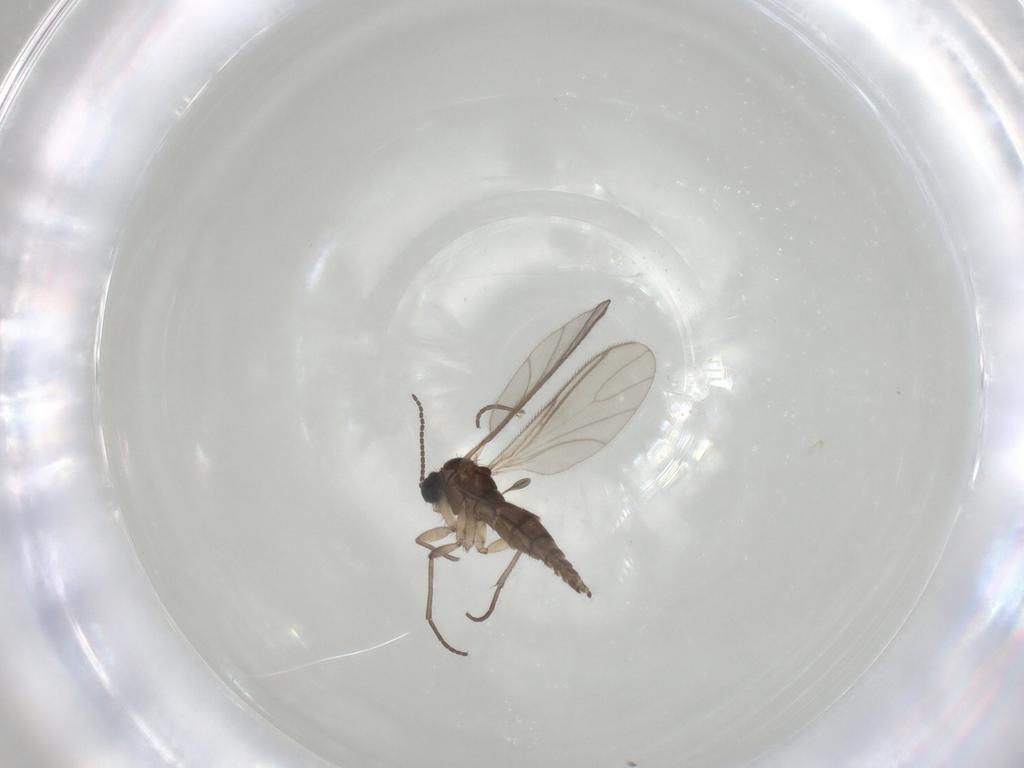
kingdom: Animalia
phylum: Arthropoda
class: Insecta
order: Diptera
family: Sciaridae
